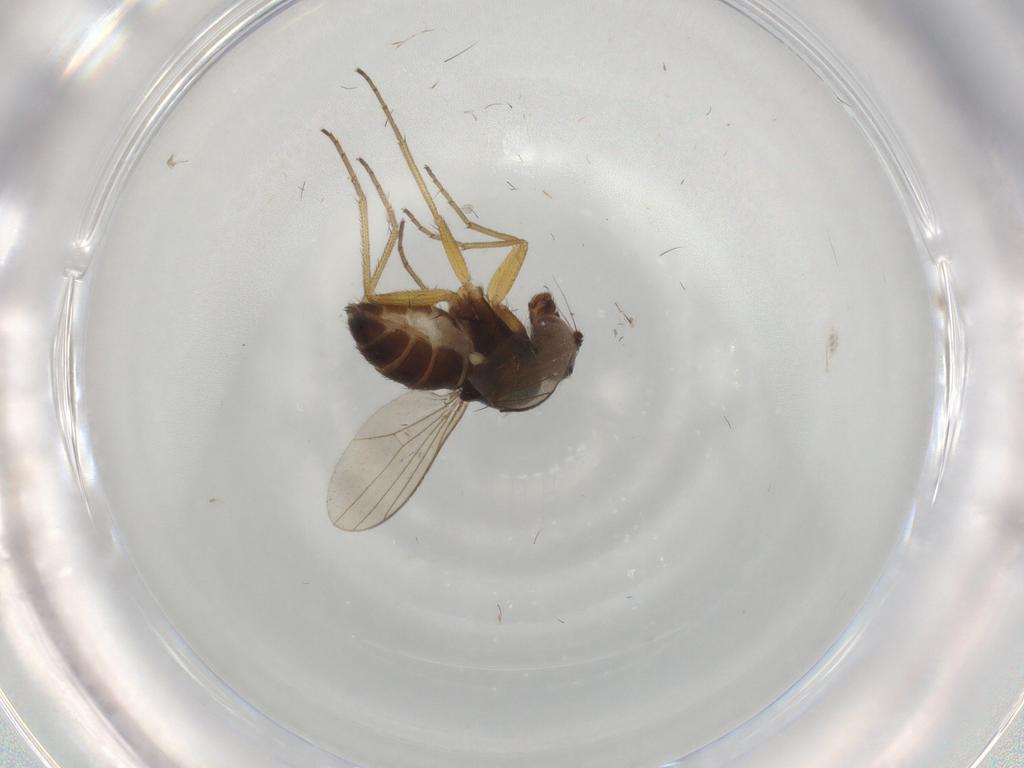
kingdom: Animalia
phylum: Arthropoda
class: Insecta
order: Diptera
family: Dolichopodidae
